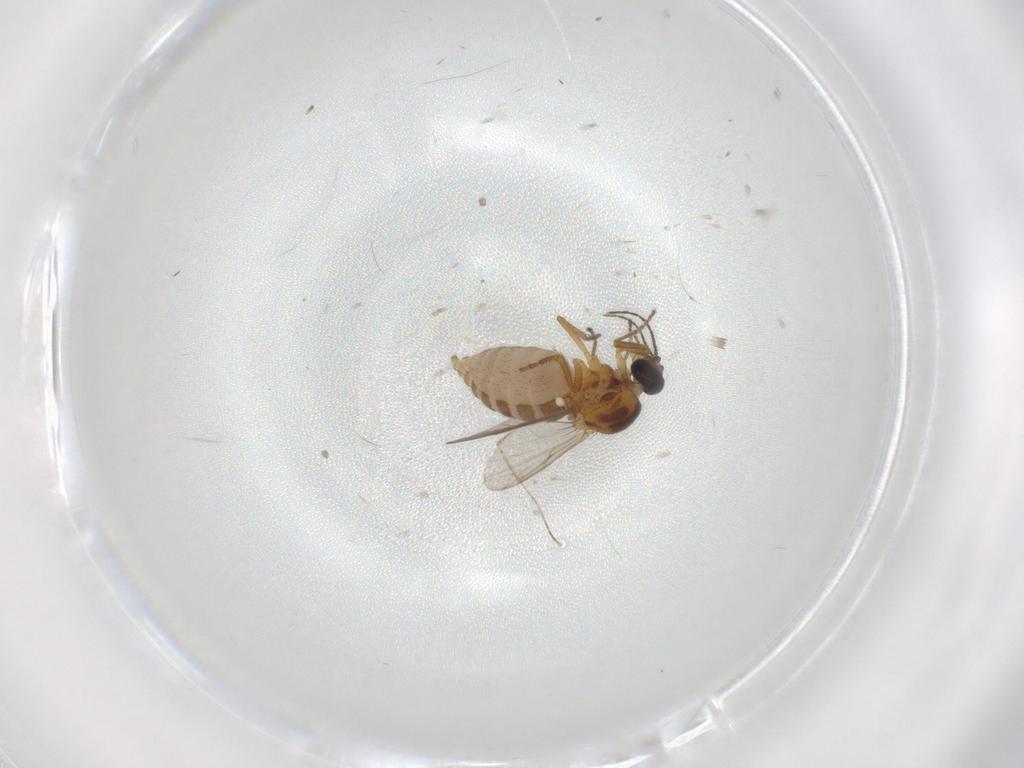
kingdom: Animalia
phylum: Arthropoda
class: Insecta
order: Diptera
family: Ceratopogonidae
